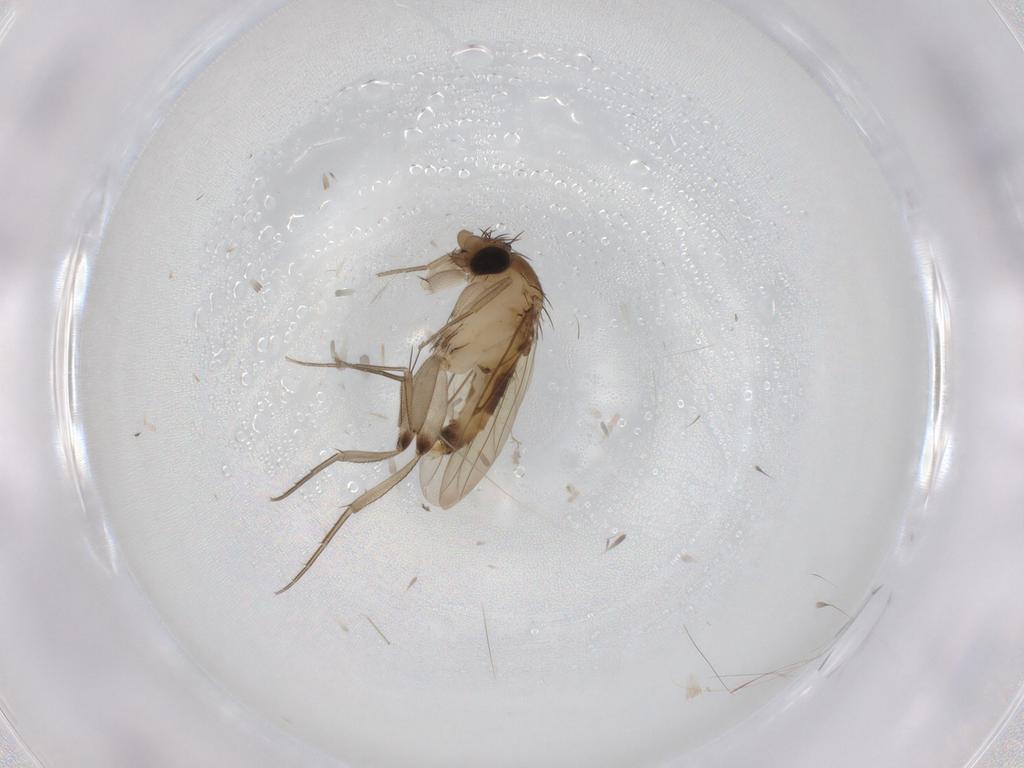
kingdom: Animalia
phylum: Arthropoda
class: Insecta
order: Diptera
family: Phoridae
